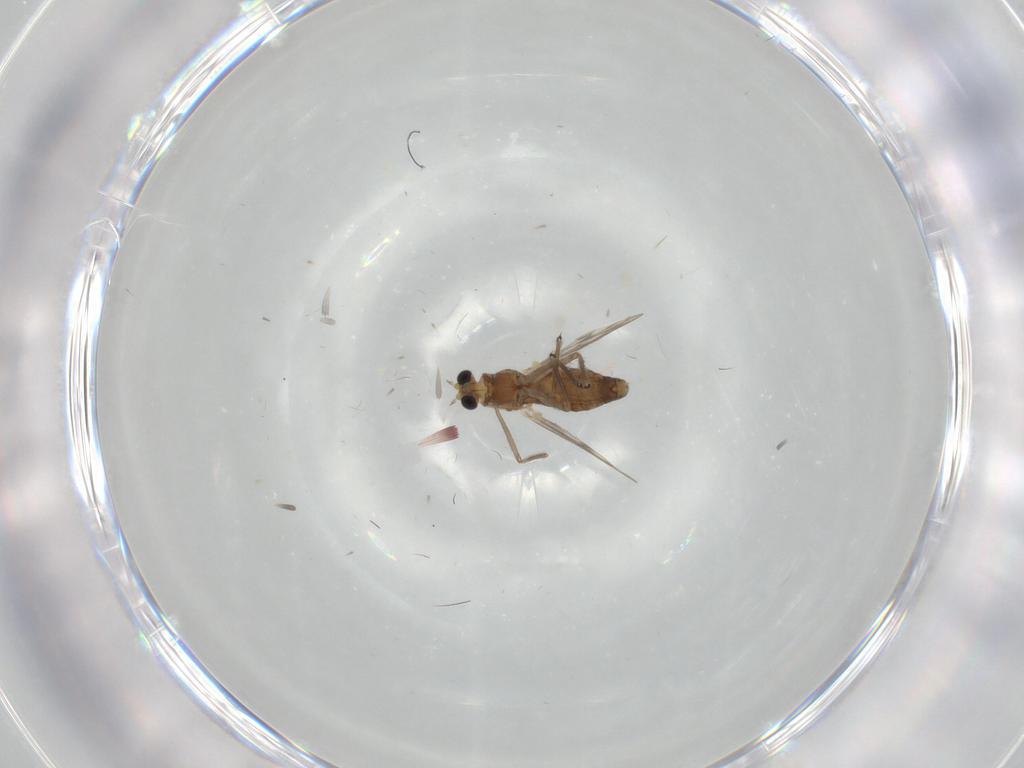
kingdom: Animalia
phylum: Arthropoda
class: Insecta
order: Diptera
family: Chironomidae
